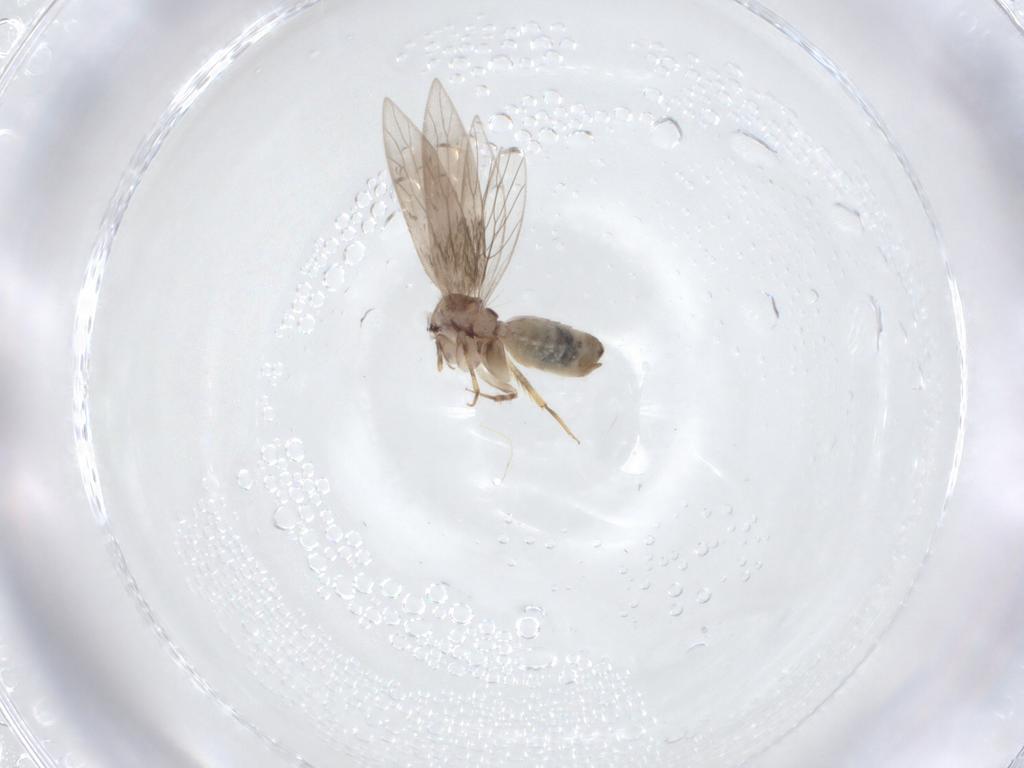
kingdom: Animalia
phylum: Arthropoda
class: Insecta
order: Psocodea
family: Lepidopsocidae
